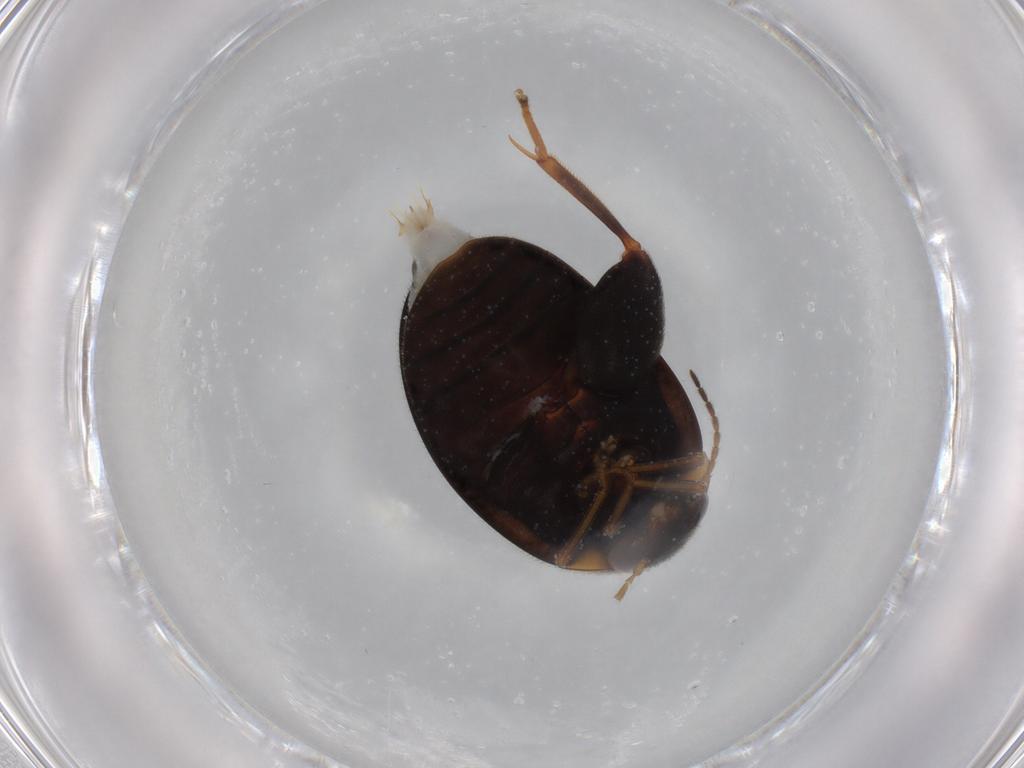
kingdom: Animalia
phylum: Arthropoda
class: Insecta
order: Coleoptera
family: Scirtidae
